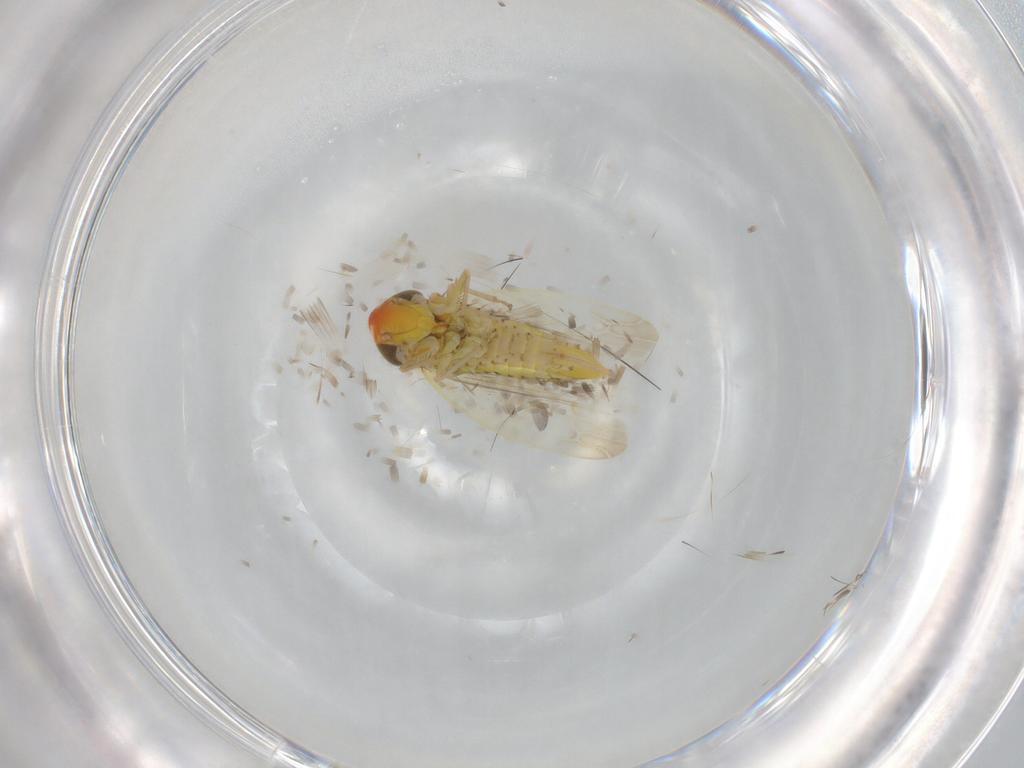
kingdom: Animalia
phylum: Arthropoda
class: Insecta
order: Hemiptera
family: Cicadellidae
